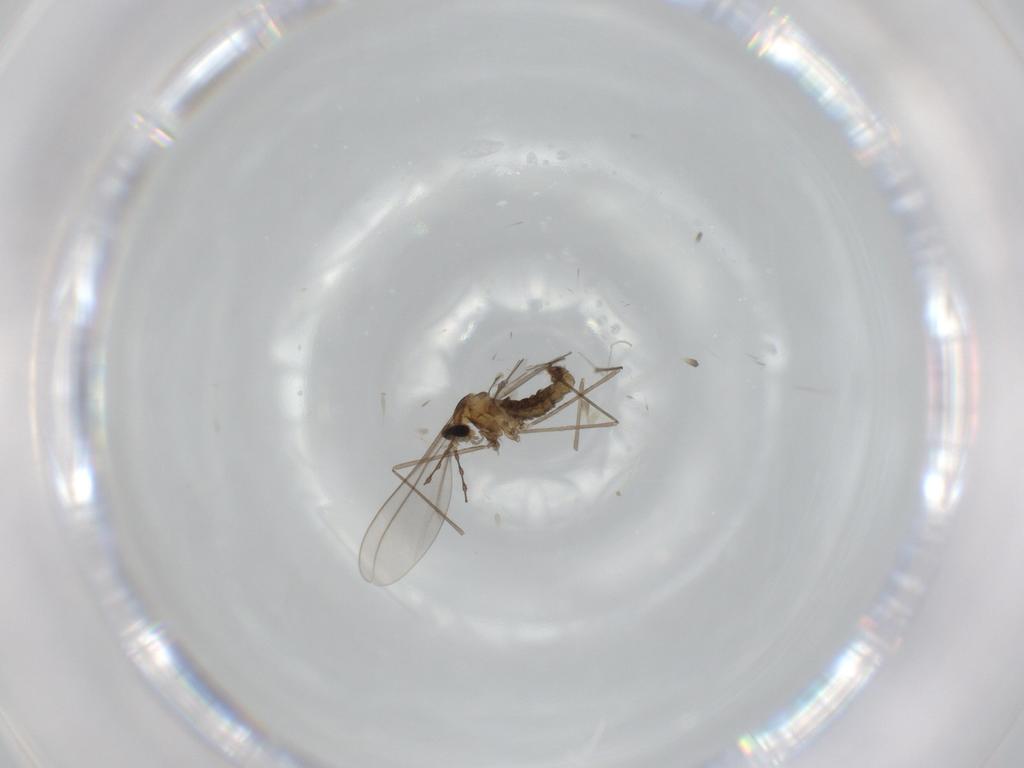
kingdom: Animalia
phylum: Arthropoda
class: Insecta
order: Diptera
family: Cecidomyiidae
